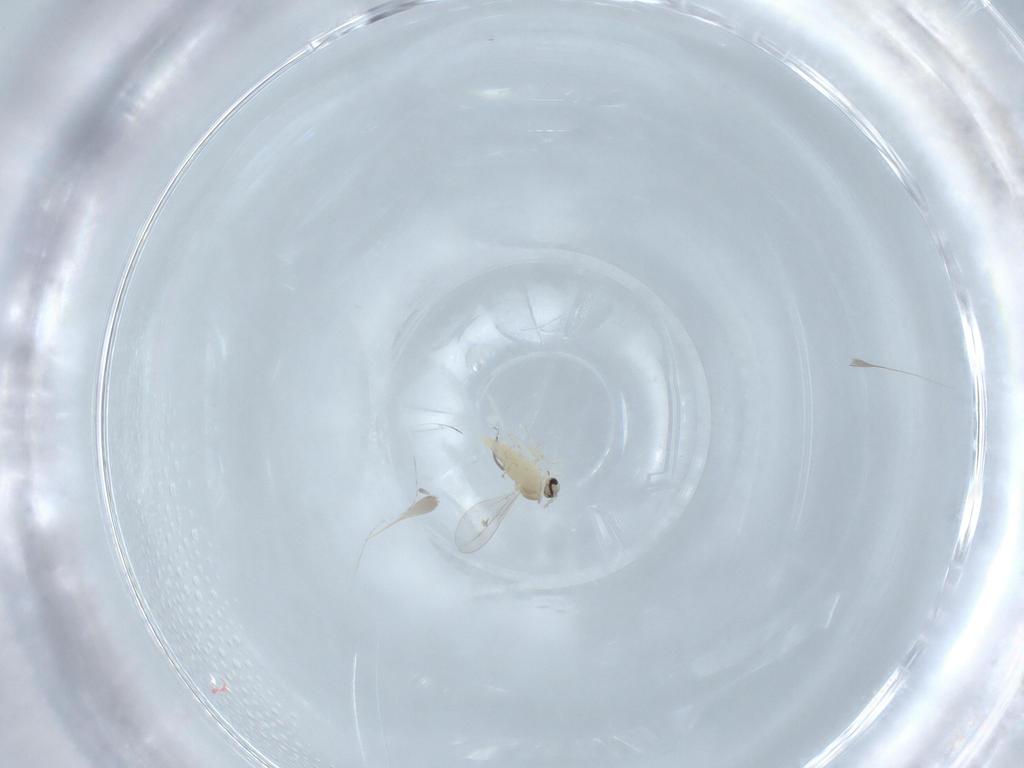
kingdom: Animalia
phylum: Arthropoda
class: Insecta
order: Diptera
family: Cecidomyiidae
